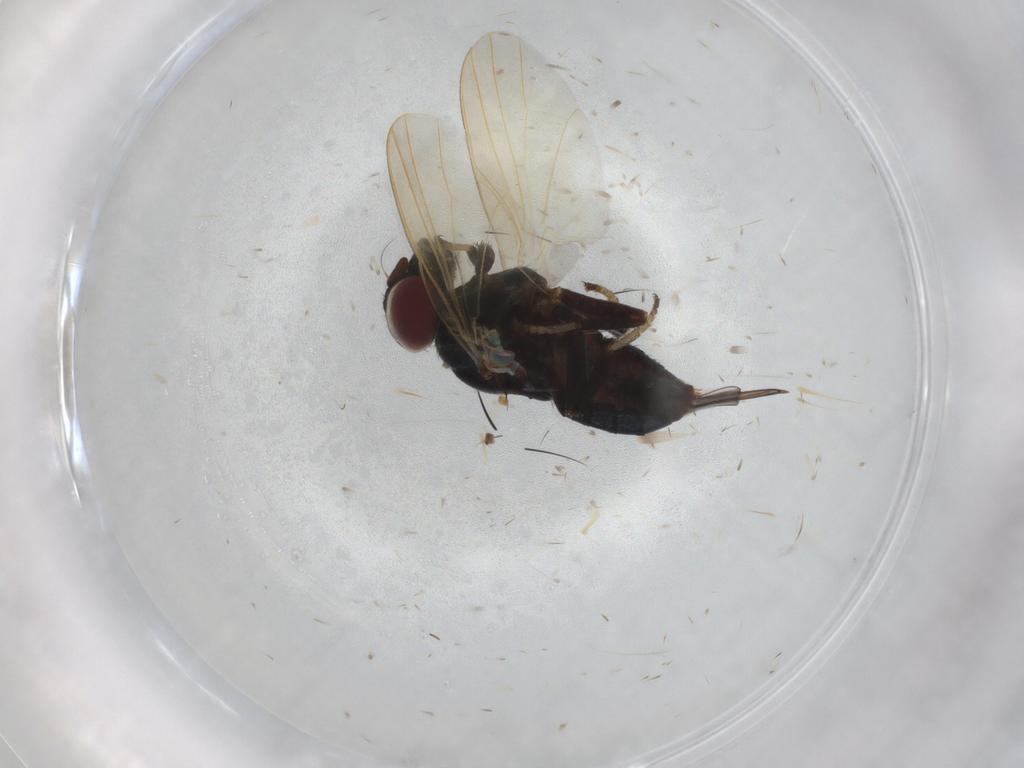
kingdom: Animalia
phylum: Arthropoda
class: Insecta
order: Diptera
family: Lonchaeidae
